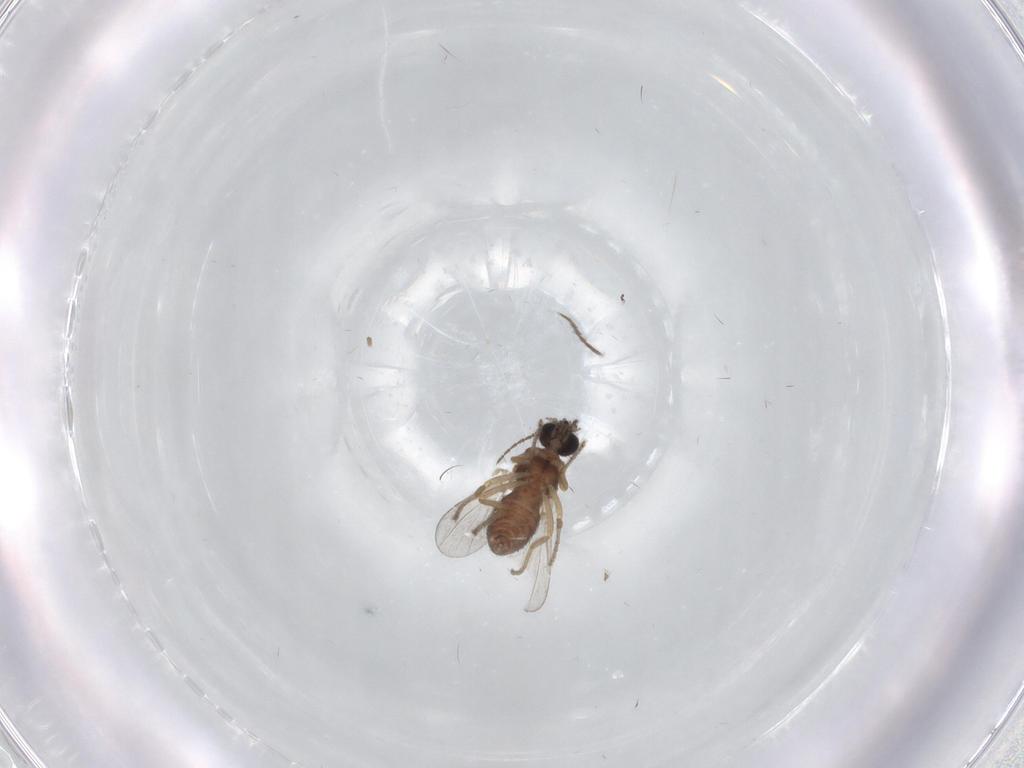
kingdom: Animalia
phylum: Arthropoda
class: Insecta
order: Diptera
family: Ceratopogonidae
